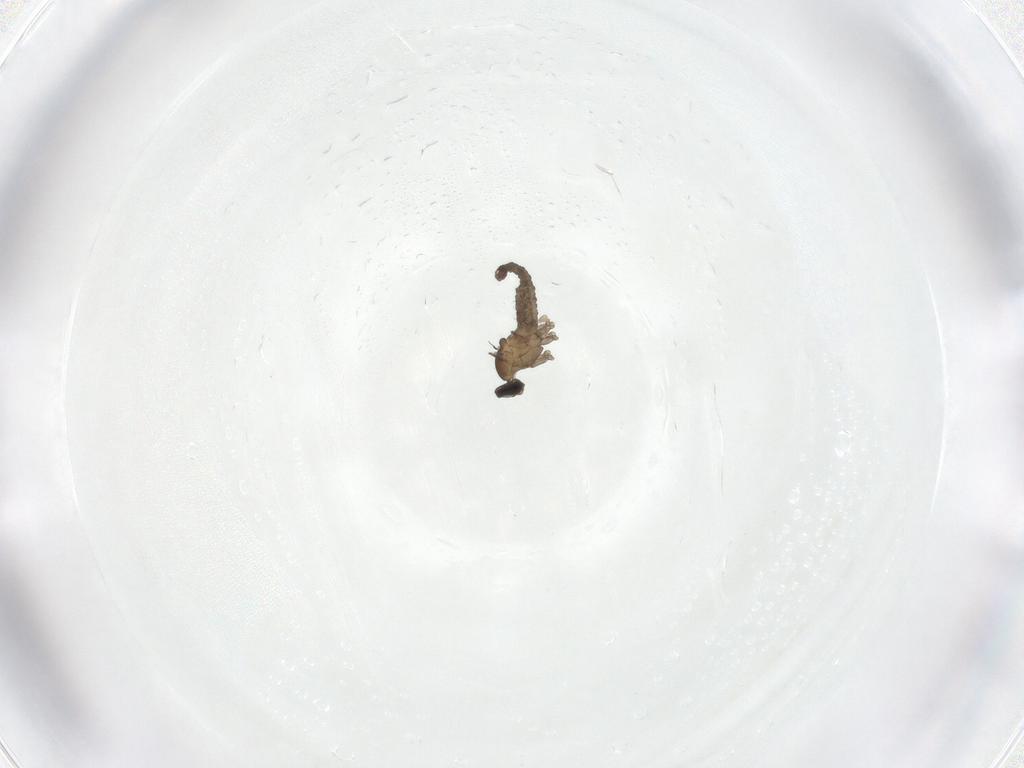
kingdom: Animalia
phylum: Arthropoda
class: Insecta
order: Diptera
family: Cecidomyiidae
